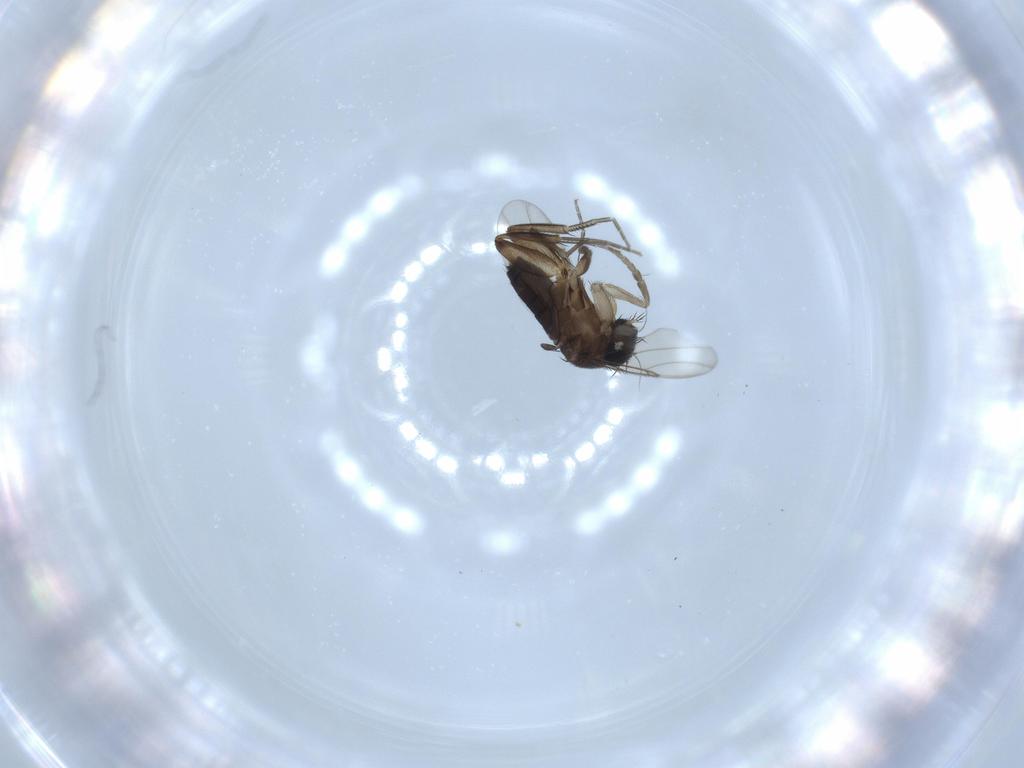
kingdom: Animalia
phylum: Arthropoda
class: Insecta
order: Diptera
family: Phoridae
